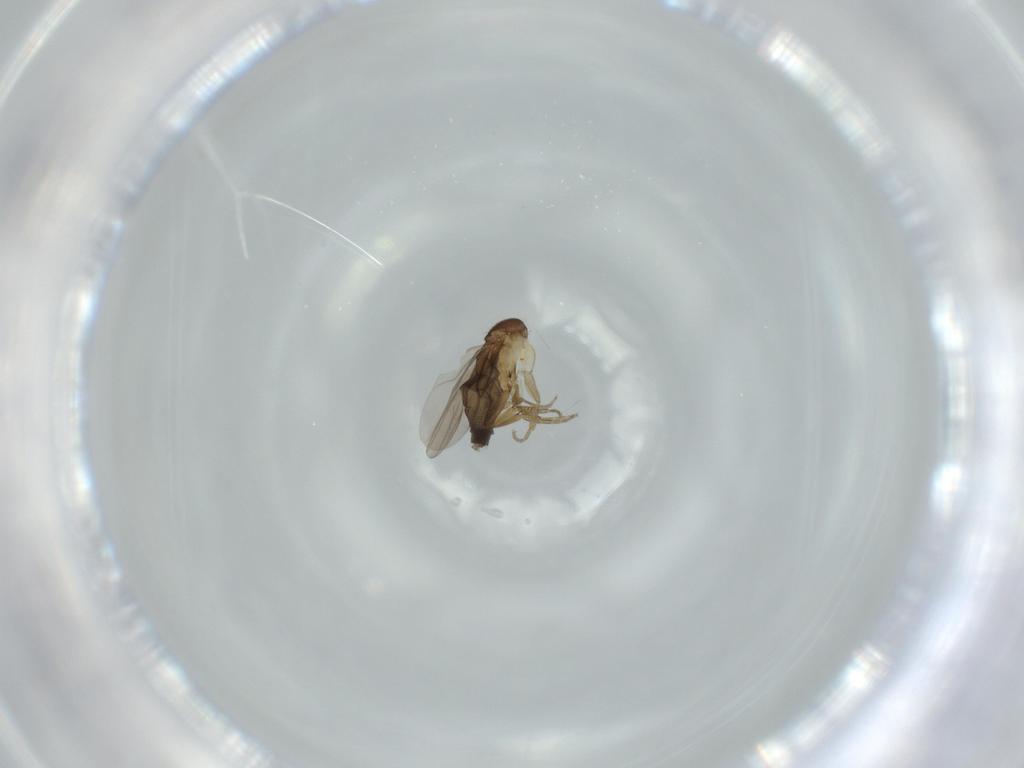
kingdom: Animalia
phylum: Arthropoda
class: Insecta
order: Diptera
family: Phoridae
